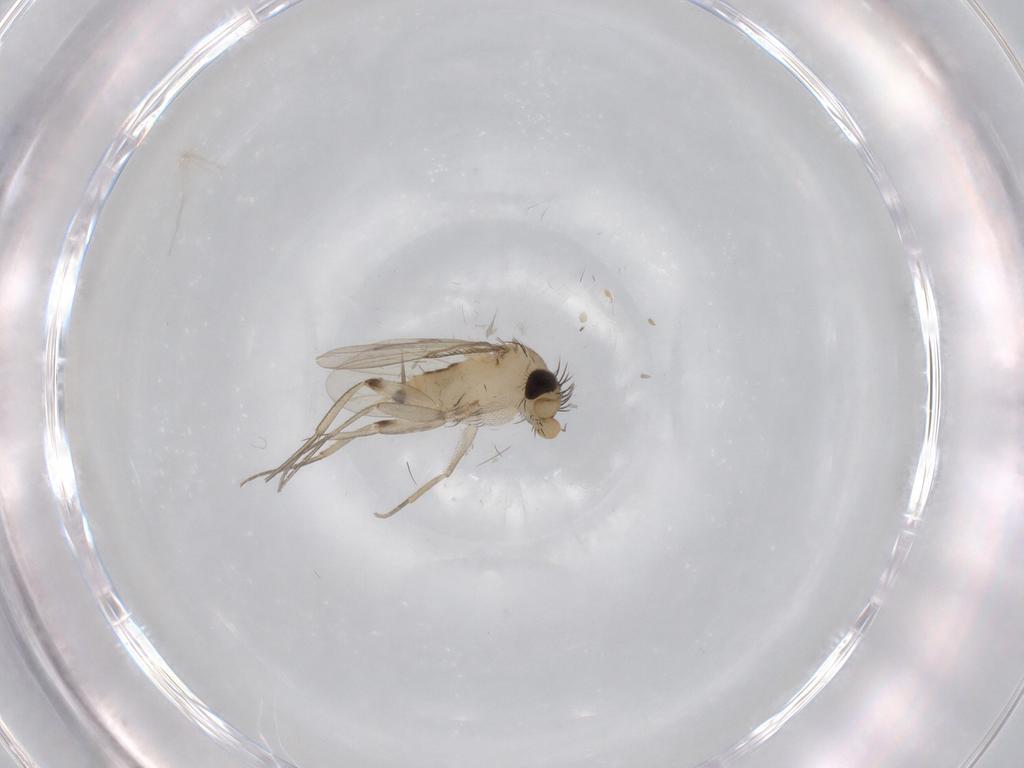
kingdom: Animalia
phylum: Arthropoda
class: Insecta
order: Diptera
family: Phoridae
